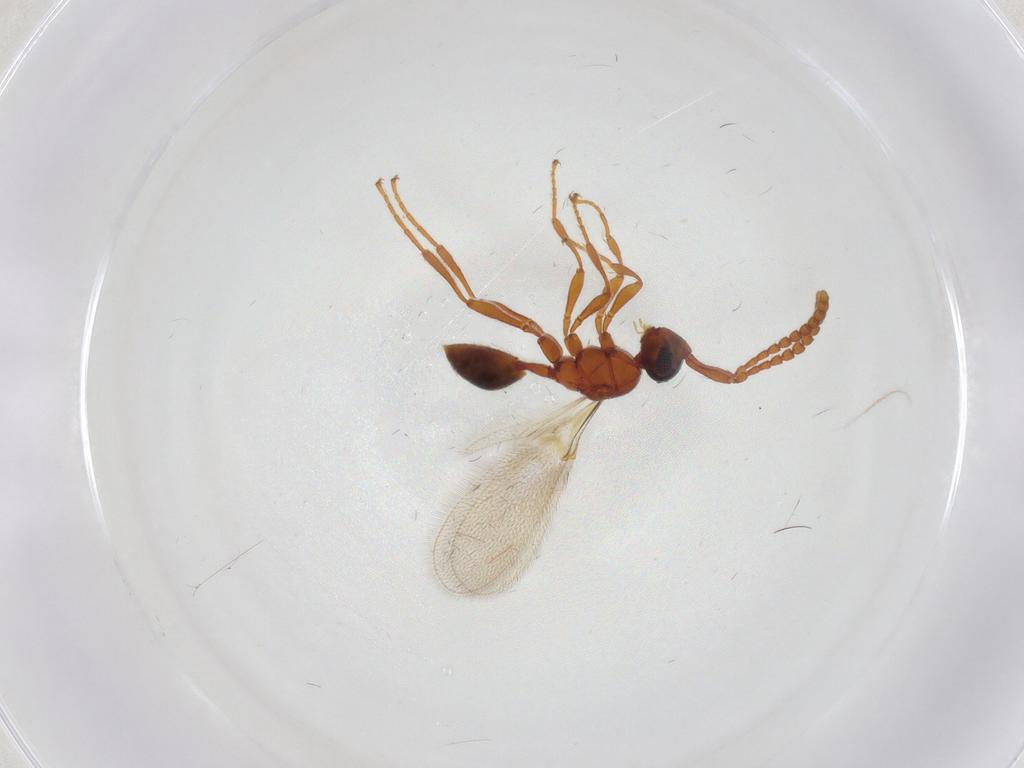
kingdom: Animalia
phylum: Arthropoda
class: Insecta
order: Hymenoptera
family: Diapriidae
